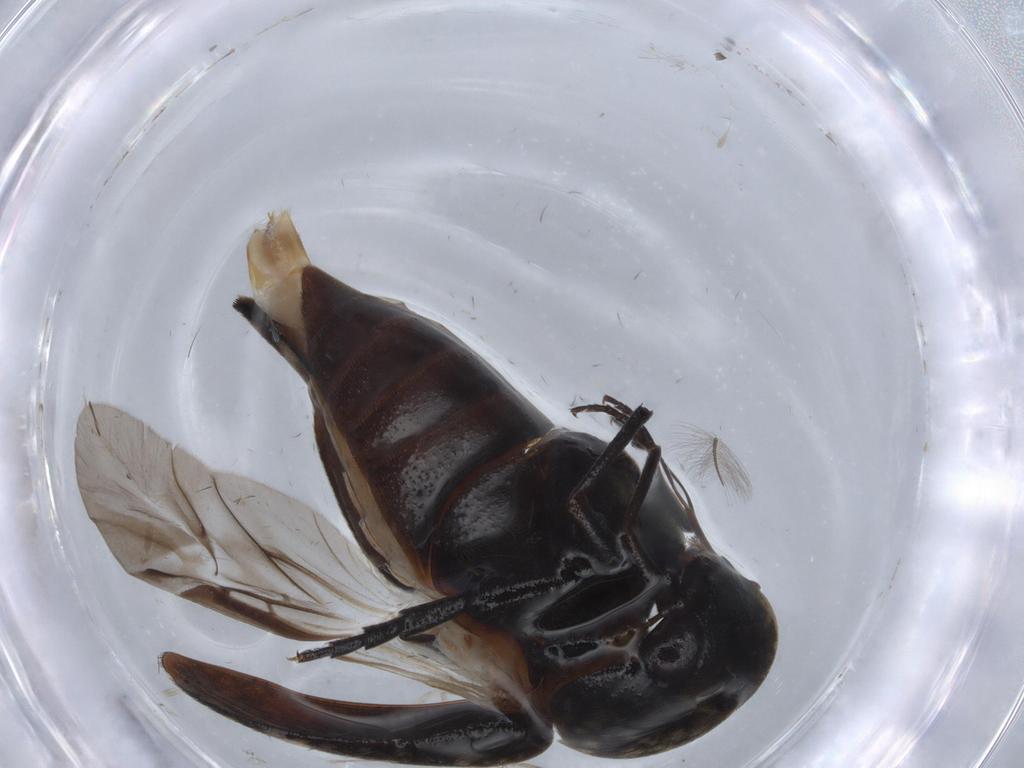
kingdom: Animalia
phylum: Arthropoda
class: Insecta
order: Coleoptera
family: Mordellidae
